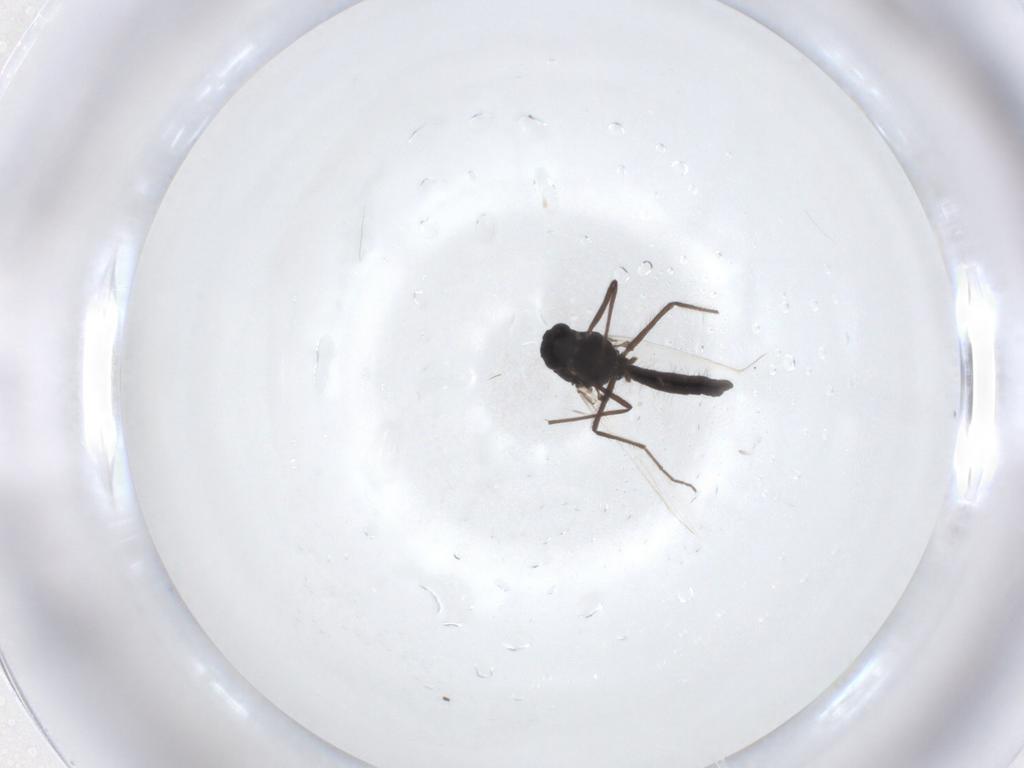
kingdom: Animalia
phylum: Arthropoda
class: Insecta
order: Diptera
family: Chironomidae
